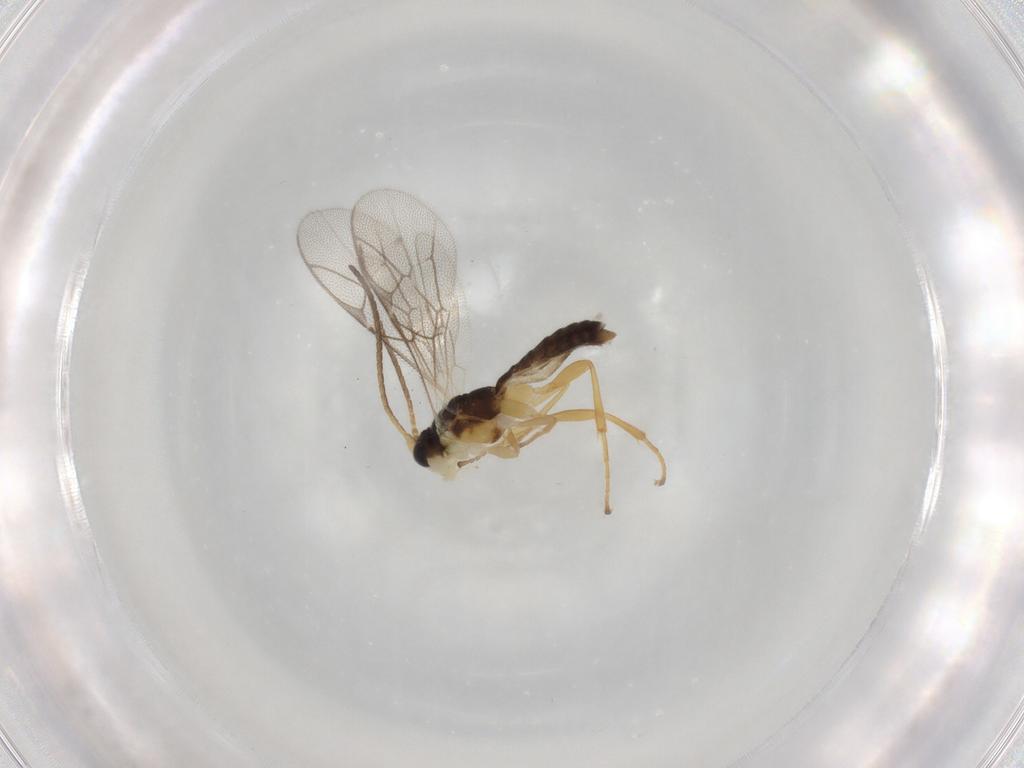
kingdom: Animalia
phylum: Arthropoda
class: Insecta
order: Hymenoptera
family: Ichneumonidae
